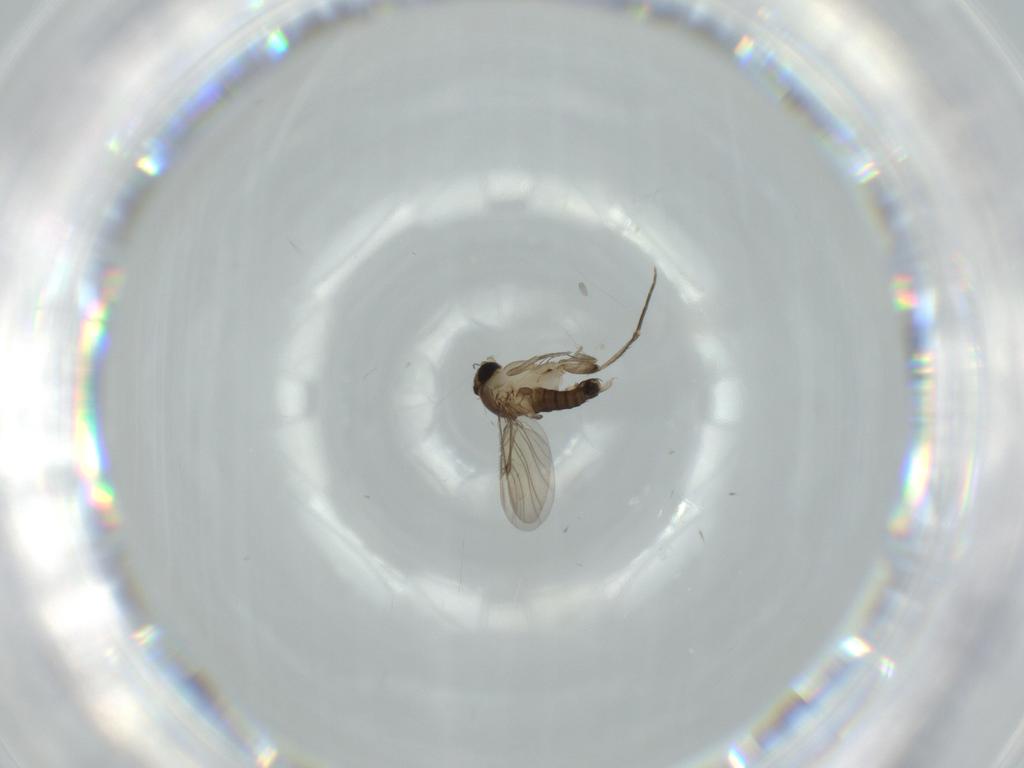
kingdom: Animalia
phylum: Arthropoda
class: Insecta
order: Diptera
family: Phoridae
